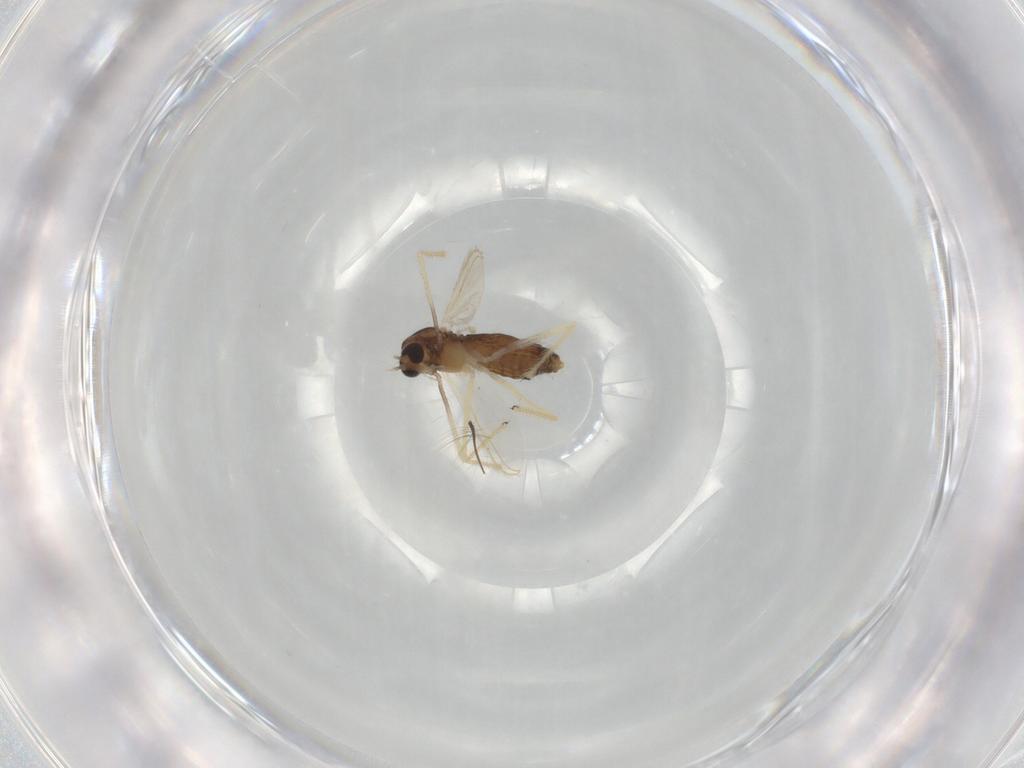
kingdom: Animalia
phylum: Arthropoda
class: Insecta
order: Diptera
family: Chironomidae
